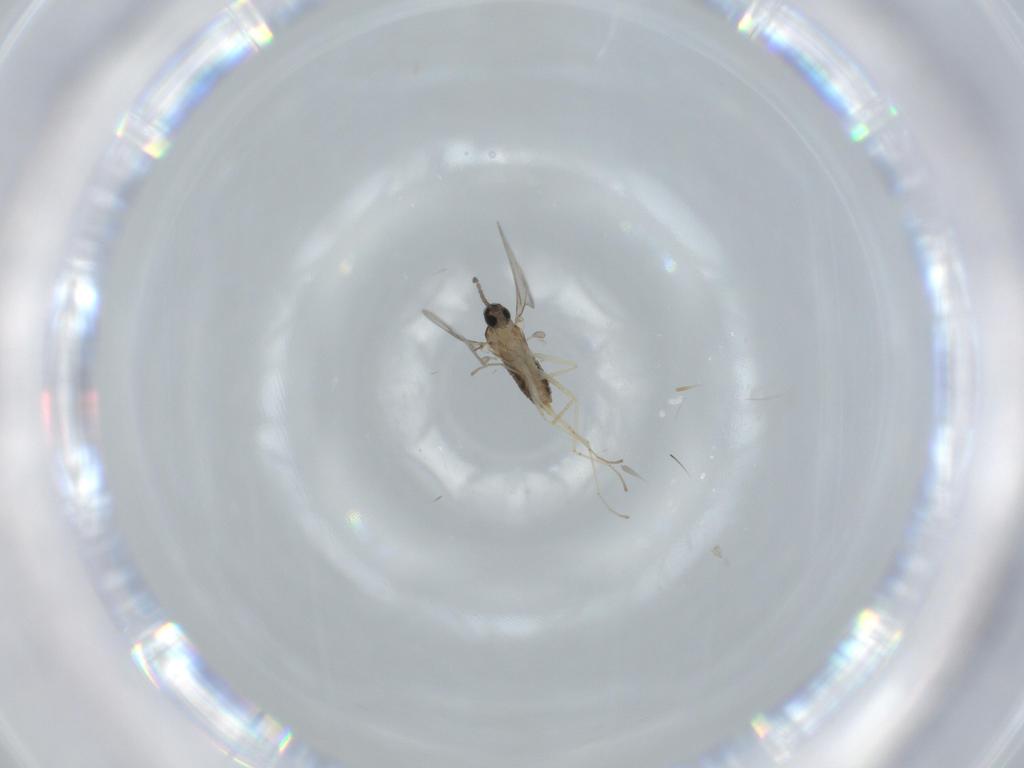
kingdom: Animalia
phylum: Arthropoda
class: Insecta
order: Diptera
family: Cecidomyiidae
